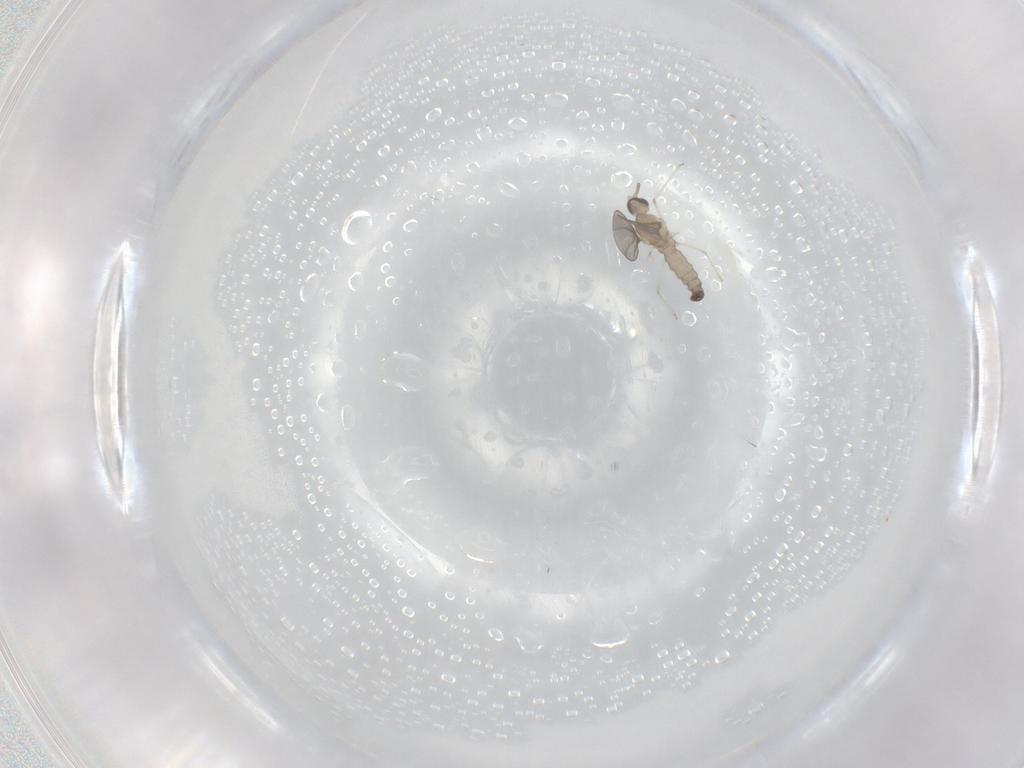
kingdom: Animalia
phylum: Arthropoda
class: Insecta
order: Diptera
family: Cecidomyiidae
